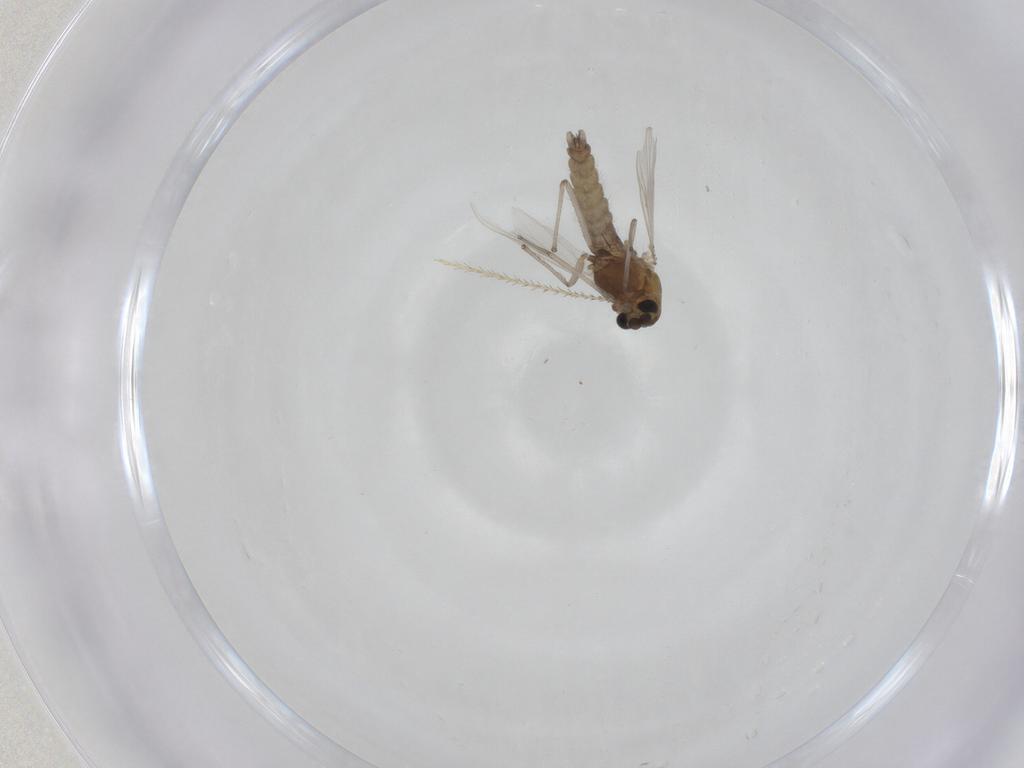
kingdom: Animalia
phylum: Arthropoda
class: Insecta
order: Diptera
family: Chironomidae
